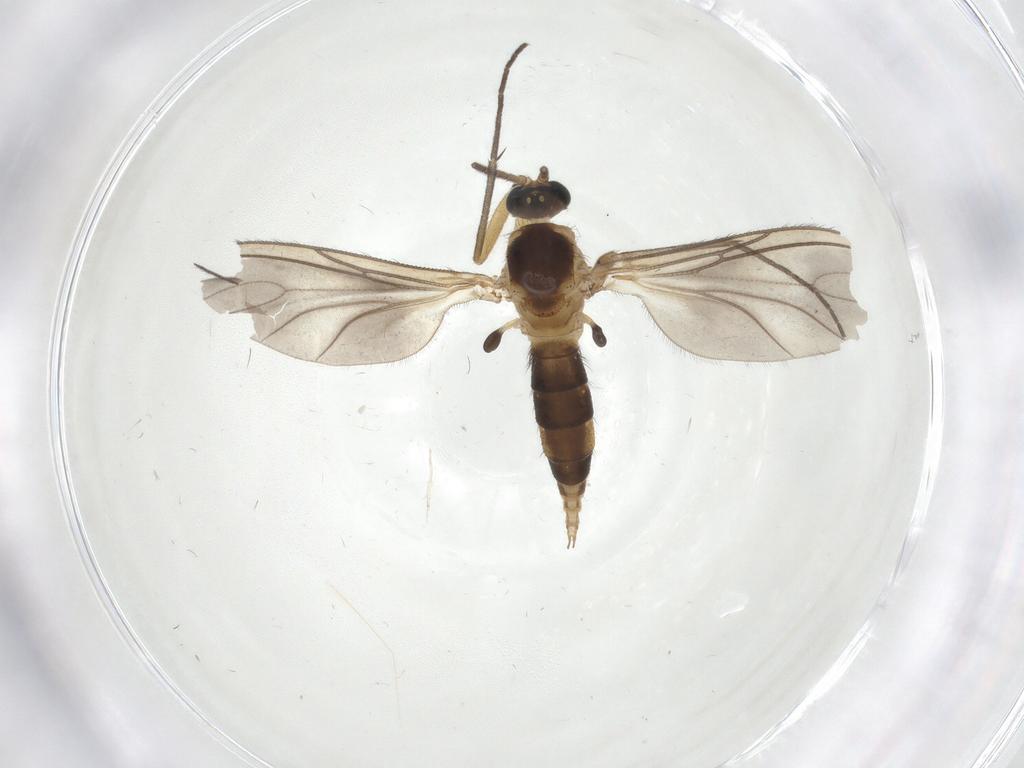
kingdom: Animalia
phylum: Arthropoda
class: Insecta
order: Diptera
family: Sciaridae
